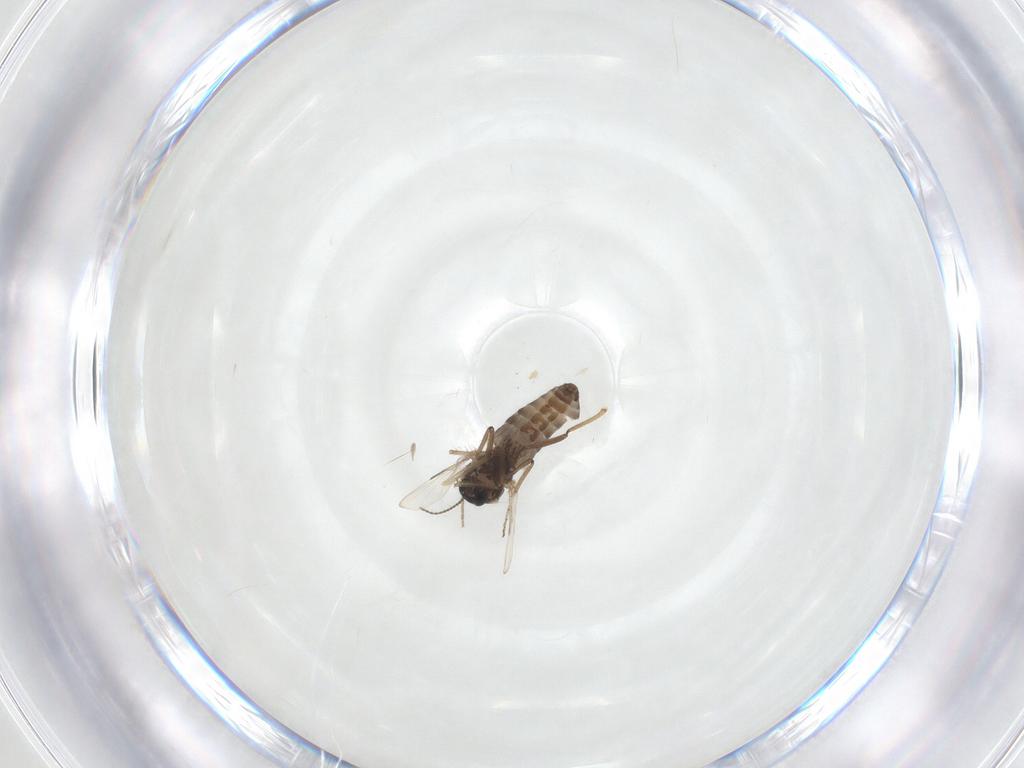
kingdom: Animalia
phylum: Arthropoda
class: Insecta
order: Diptera
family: Ceratopogonidae
